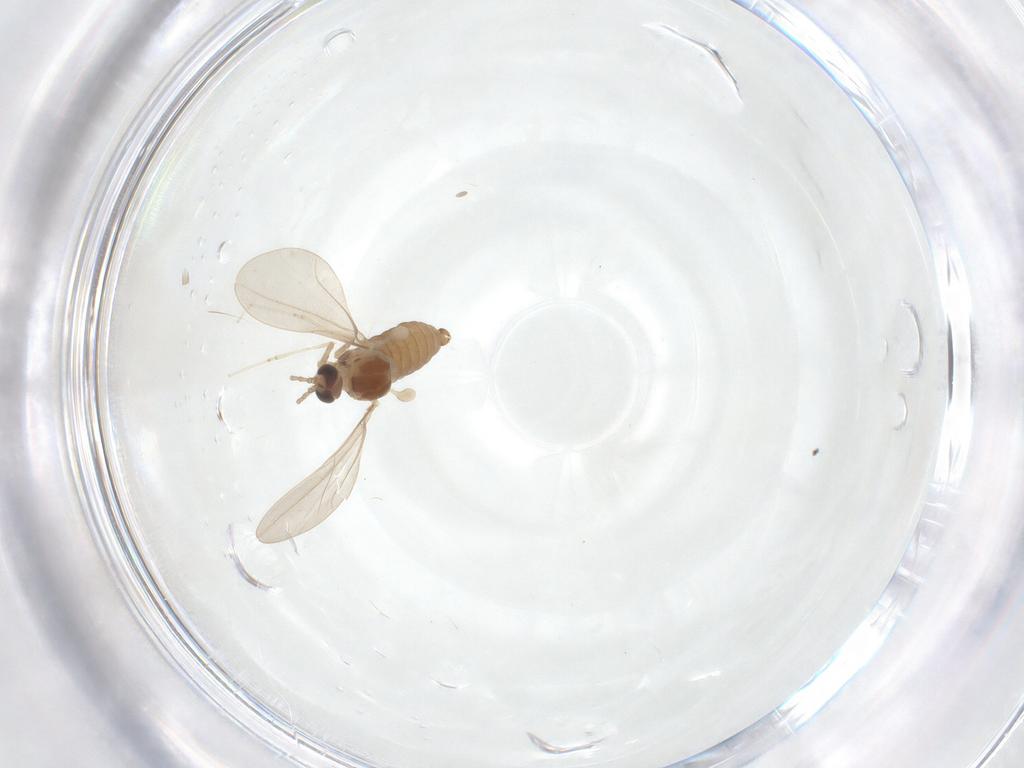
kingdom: Animalia
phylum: Arthropoda
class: Insecta
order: Diptera
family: Cecidomyiidae
